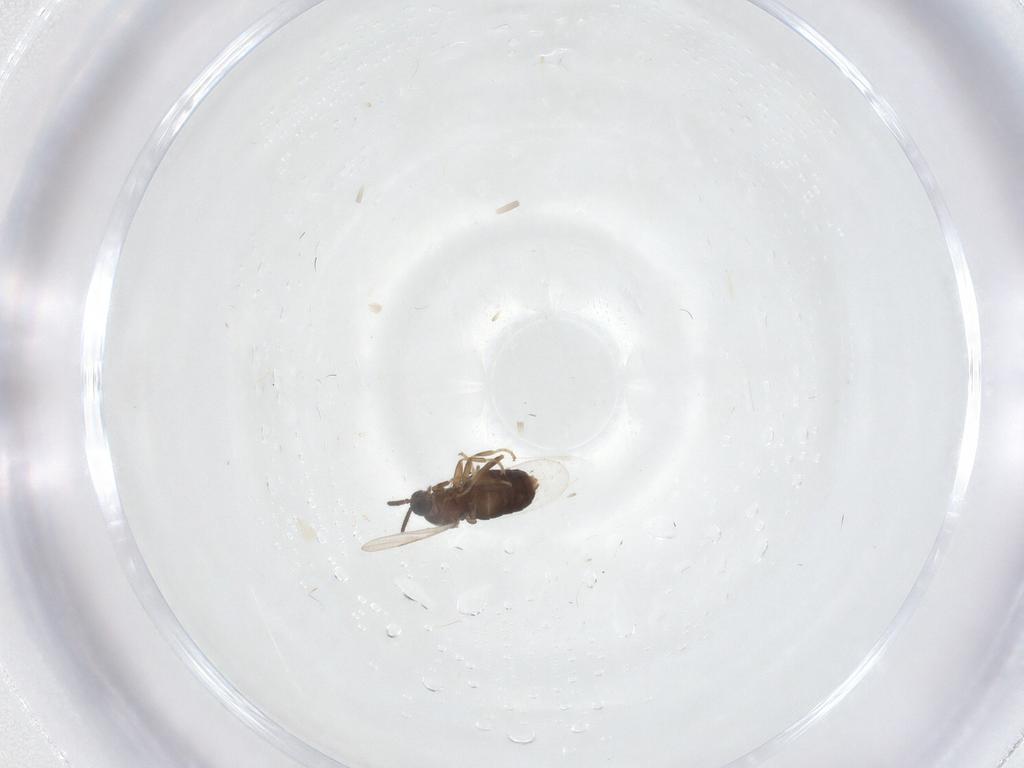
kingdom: Animalia
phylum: Arthropoda
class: Insecta
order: Diptera
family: Scatopsidae
